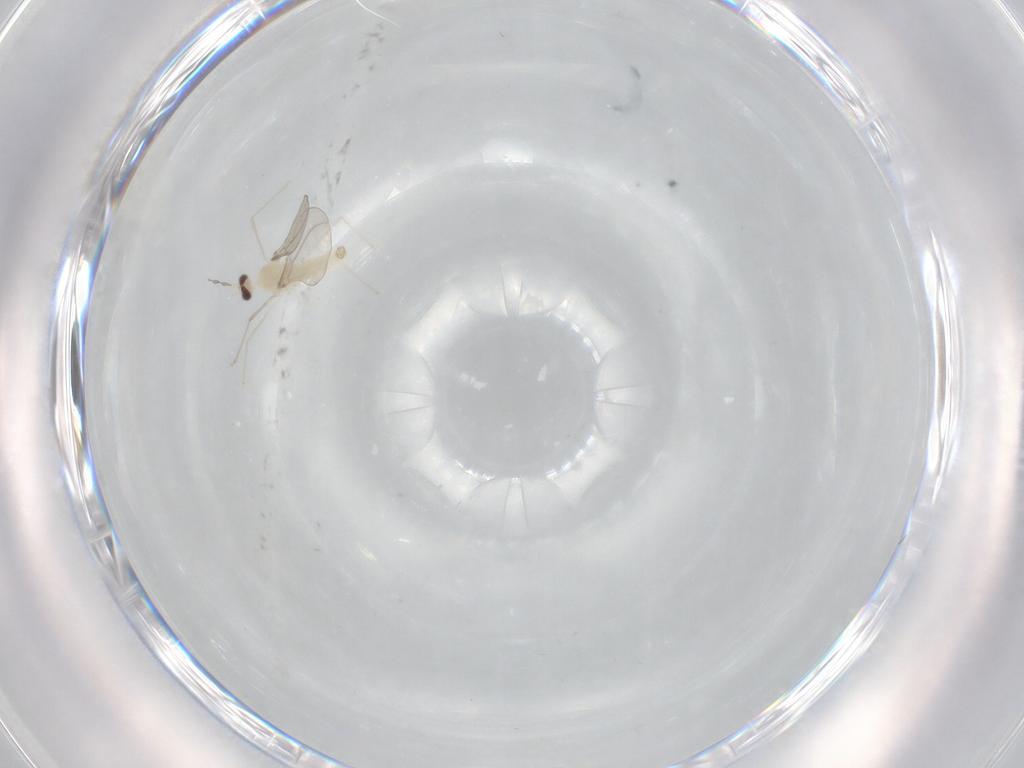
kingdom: Animalia
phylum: Arthropoda
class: Insecta
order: Diptera
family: Cecidomyiidae
